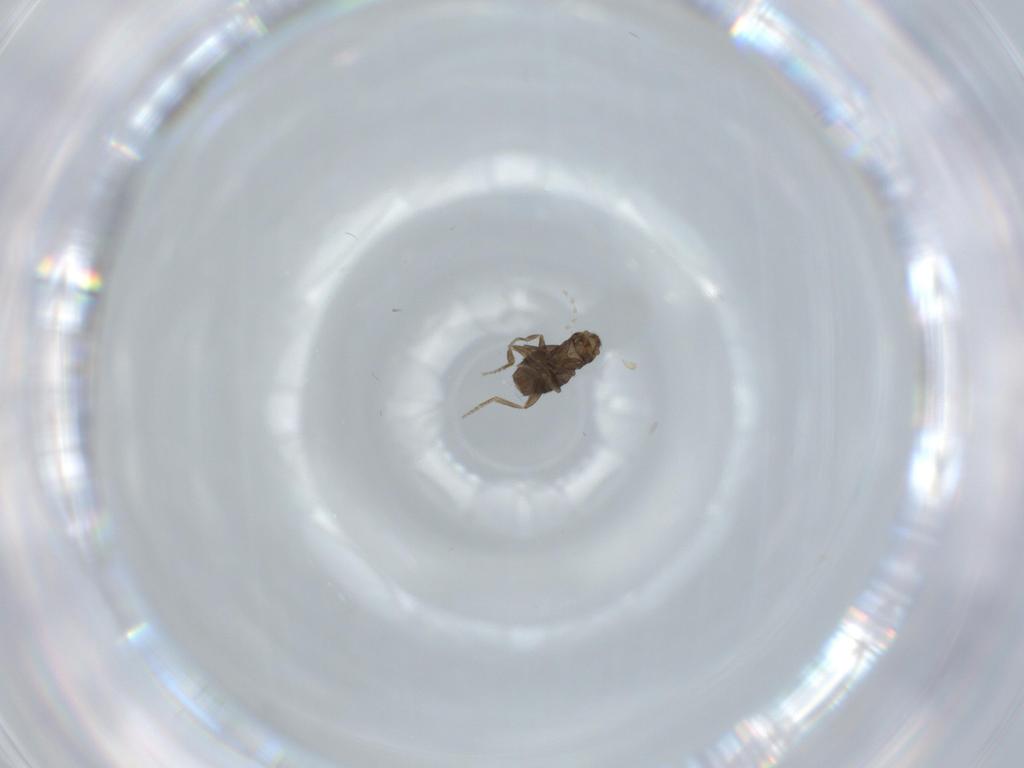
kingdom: Animalia
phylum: Arthropoda
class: Insecta
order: Diptera
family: Cecidomyiidae
